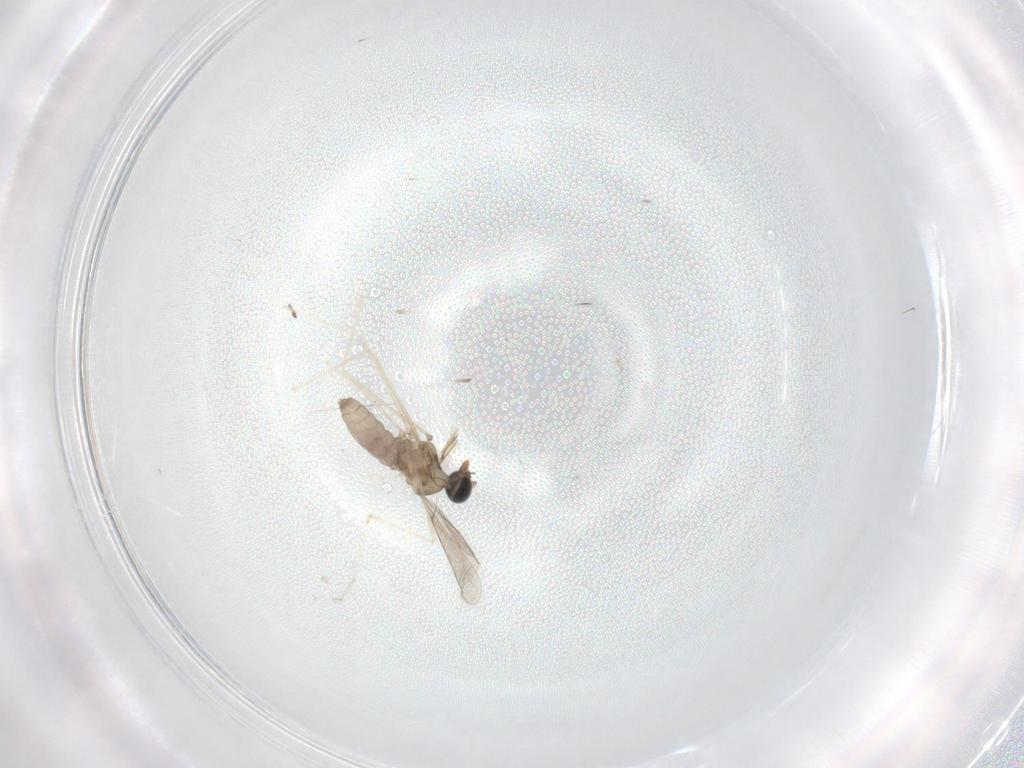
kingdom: Animalia
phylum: Arthropoda
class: Insecta
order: Diptera
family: Cecidomyiidae
